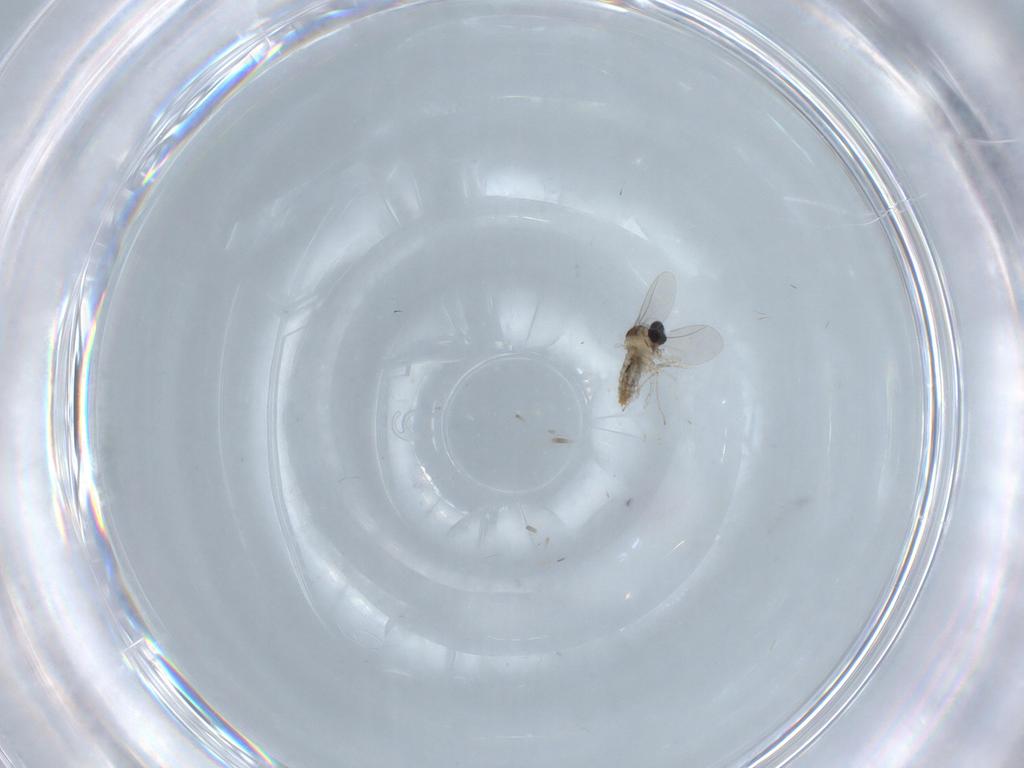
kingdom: Animalia
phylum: Arthropoda
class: Insecta
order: Diptera
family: Cecidomyiidae
